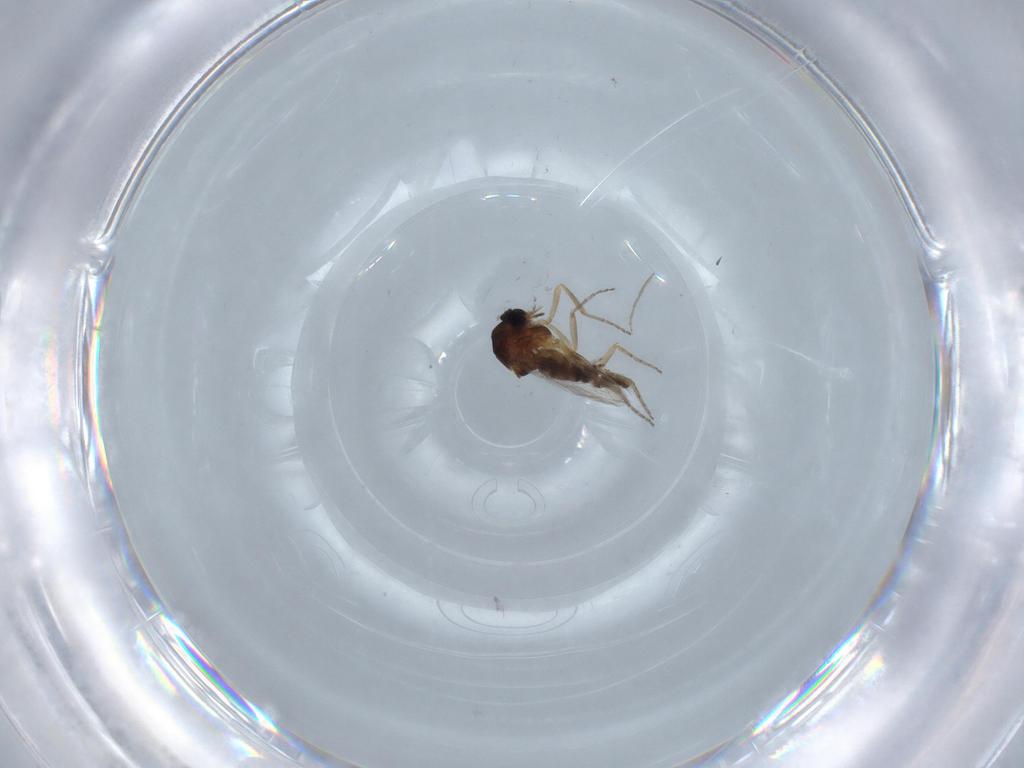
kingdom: Animalia
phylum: Arthropoda
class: Insecta
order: Diptera
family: Ceratopogonidae
